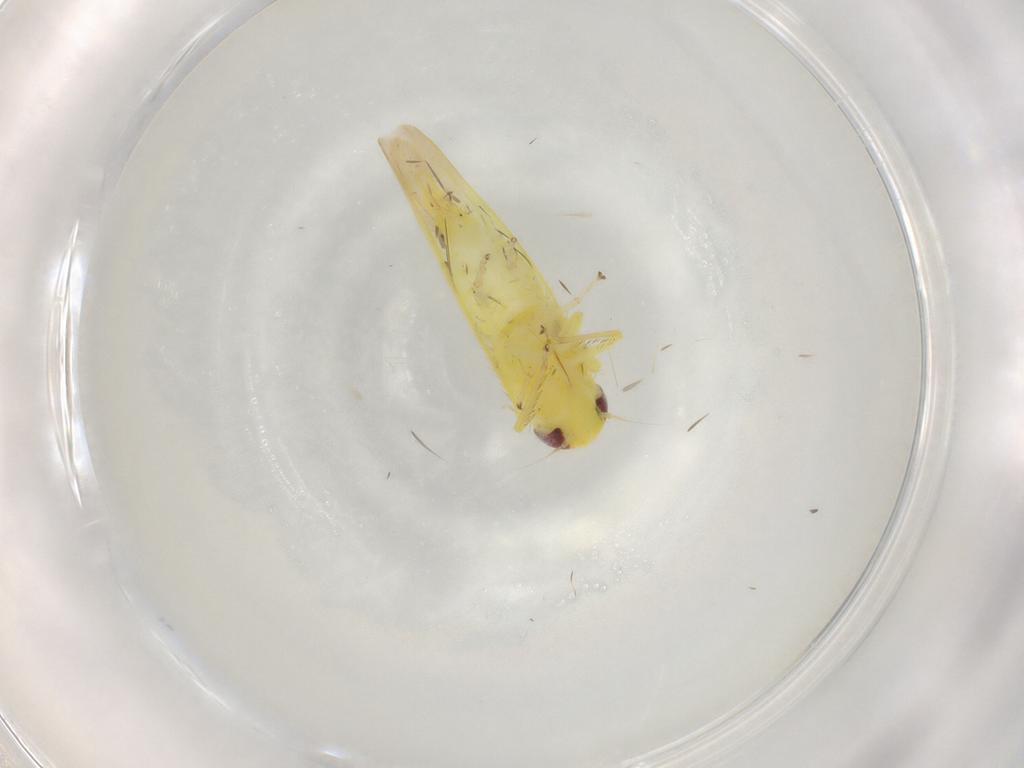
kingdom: Animalia
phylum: Arthropoda
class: Insecta
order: Hemiptera
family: Cicadellidae
